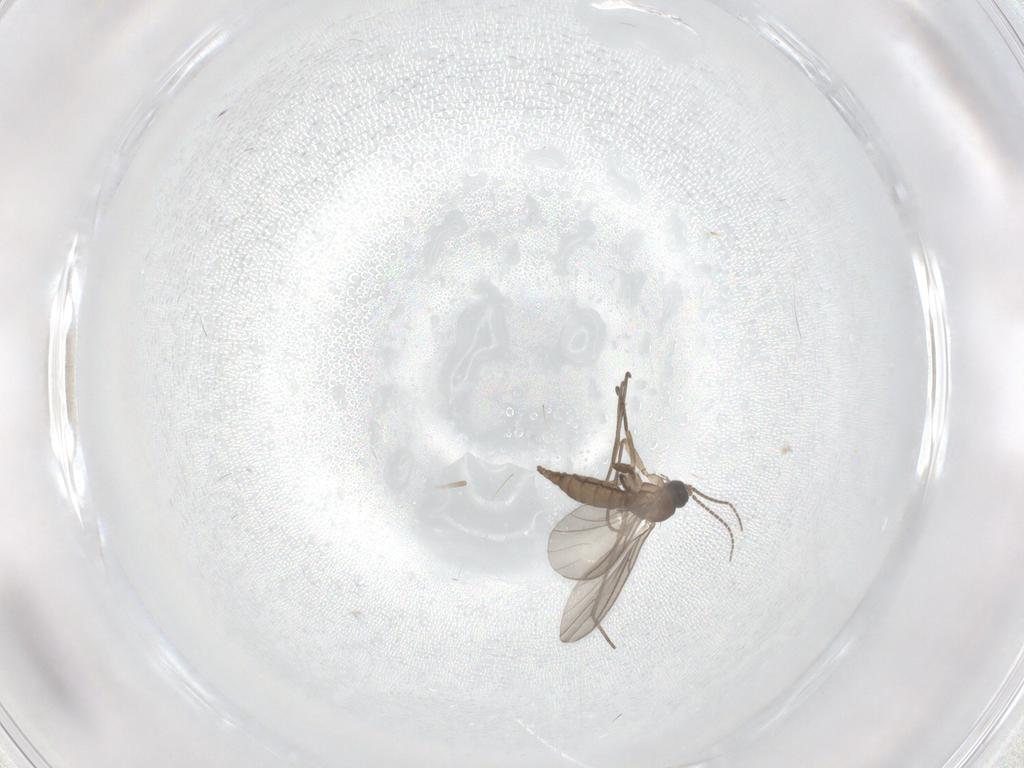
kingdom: Animalia
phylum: Arthropoda
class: Insecta
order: Diptera
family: Sciaridae
